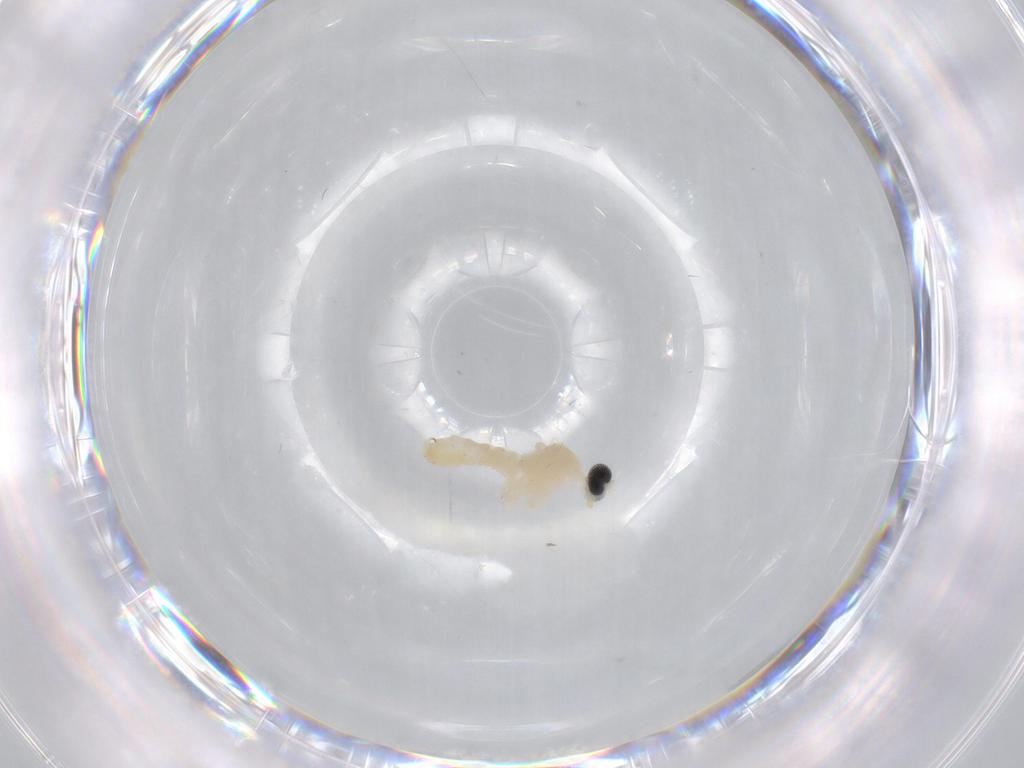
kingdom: Animalia
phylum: Arthropoda
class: Insecta
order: Diptera
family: Cecidomyiidae
